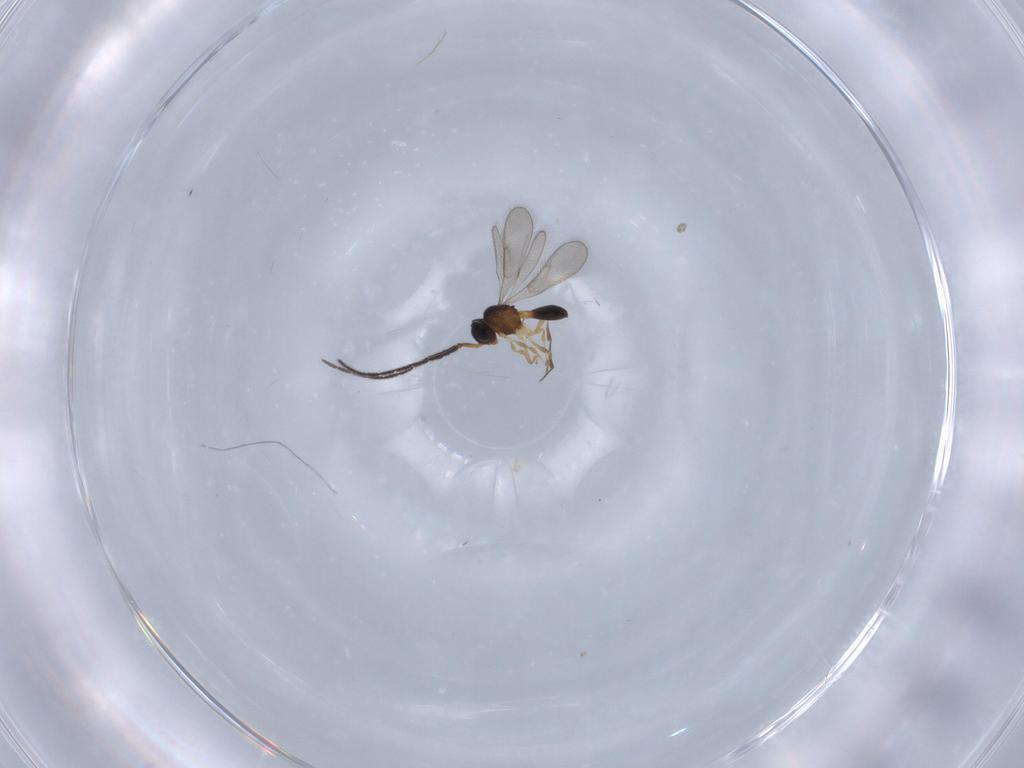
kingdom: Animalia
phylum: Arthropoda
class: Insecta
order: Hymenoptera
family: Scelionidae
